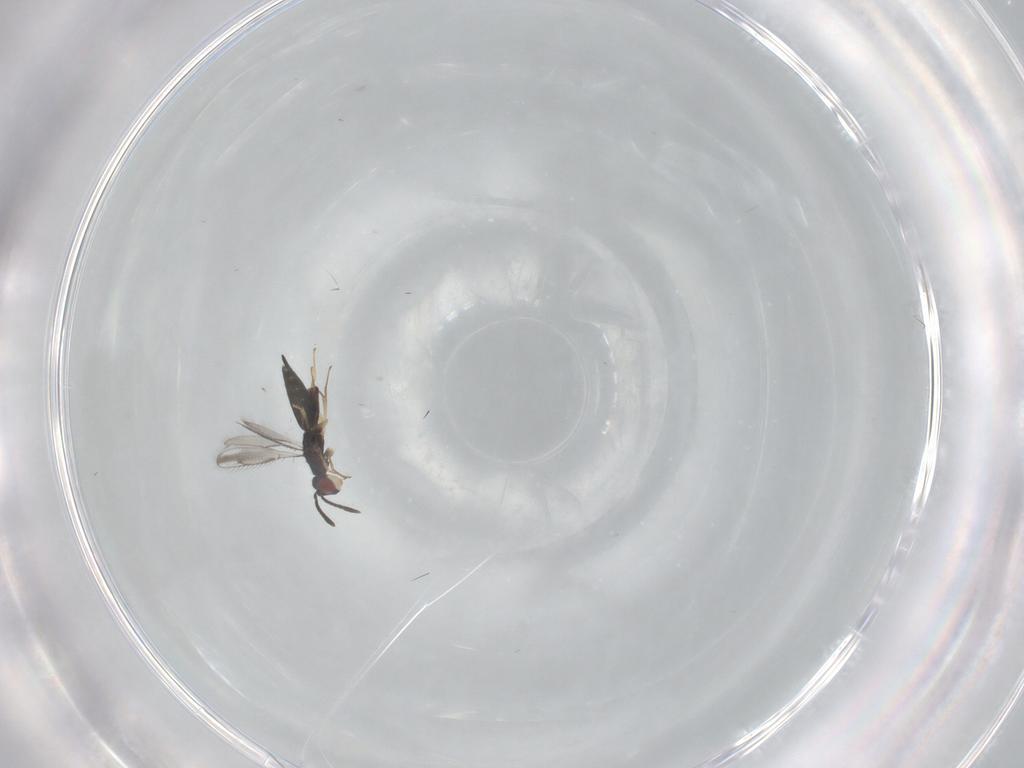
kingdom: Animalia
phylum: Arthropoda
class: Insecta
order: Hymenoptera
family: Pteromalidae
